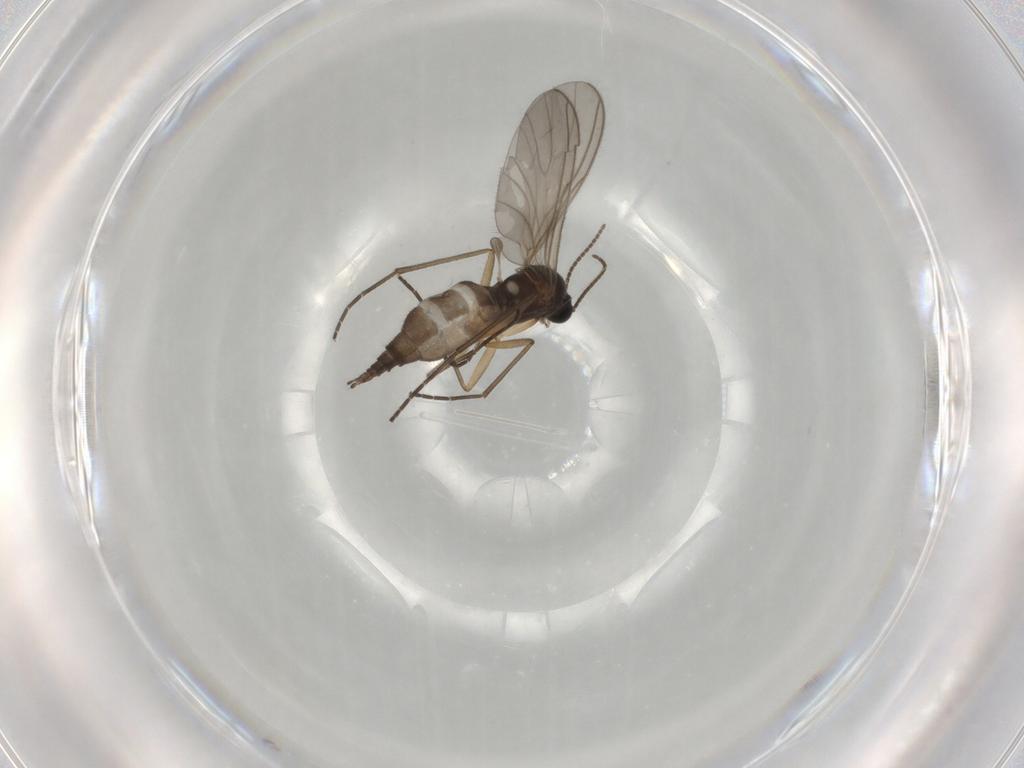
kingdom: Animalia
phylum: Arthropoda
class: Insecta
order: Diptera
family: Sciaridae
